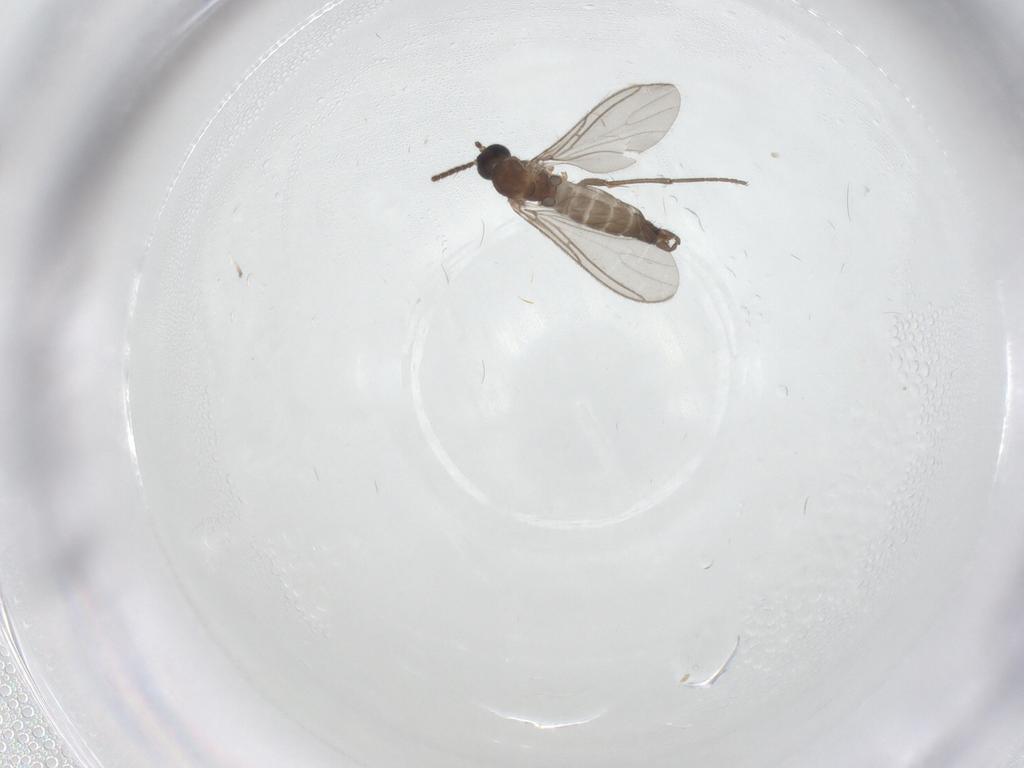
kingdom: Animalia
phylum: Arthropoda
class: Insecta
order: Diptera
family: Sciaridae
